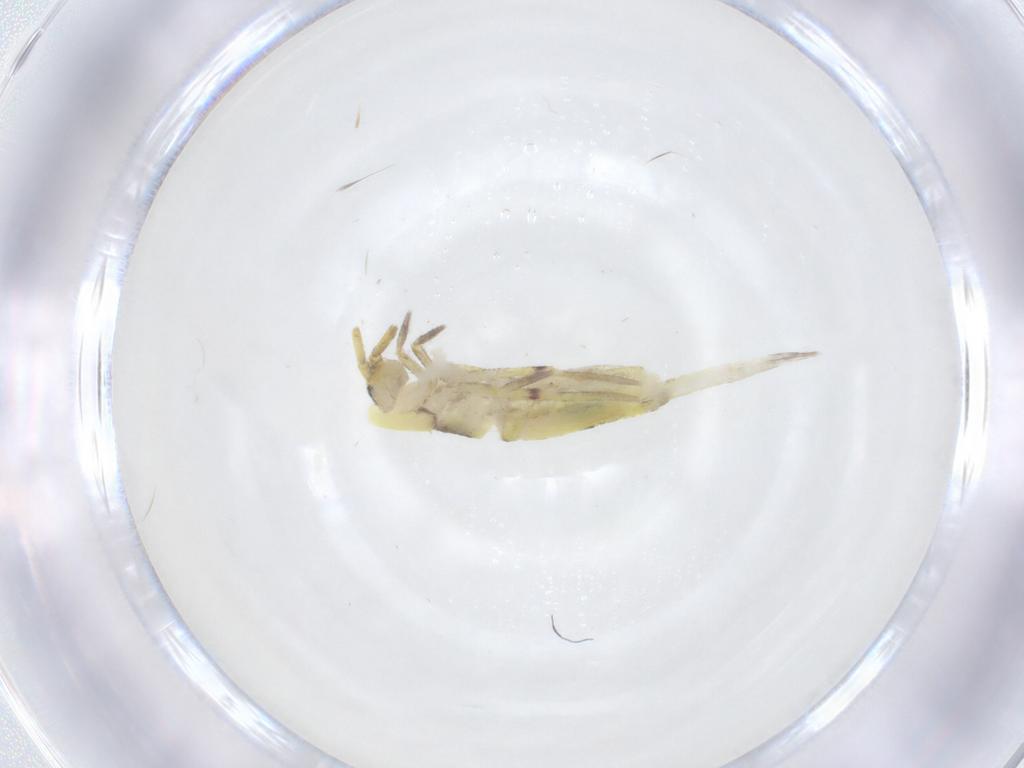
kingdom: Animalia
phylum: Arthropoda
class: Collembola
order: Entomobryomorpha
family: Entomobryidae
